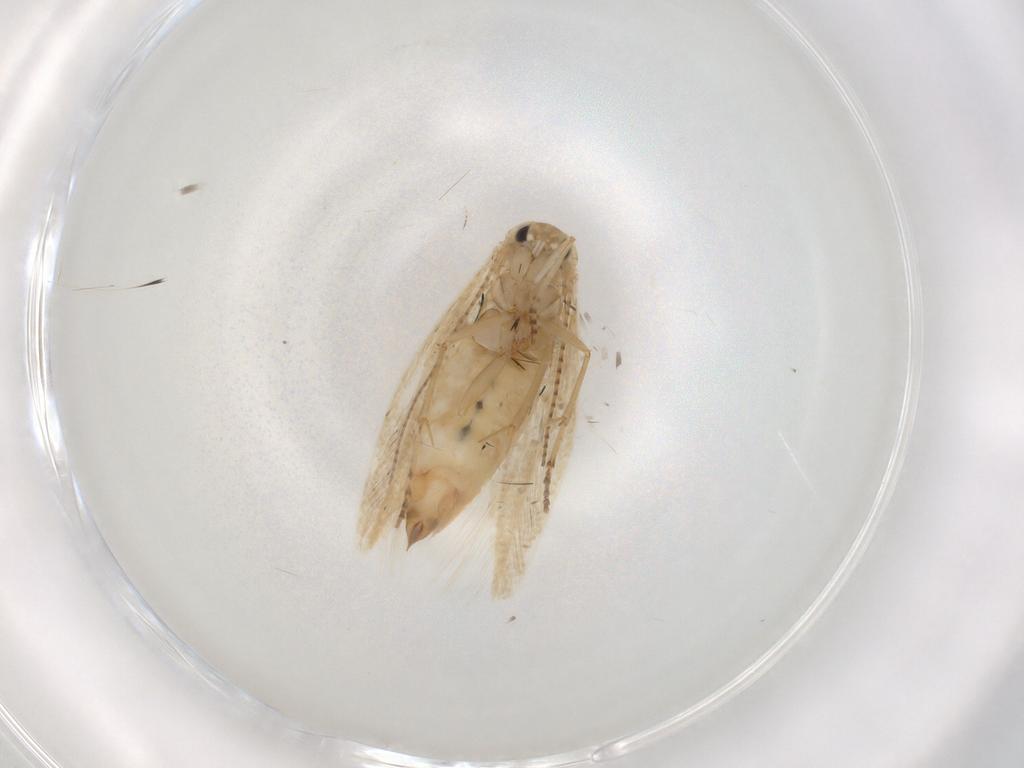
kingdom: Animalia
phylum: Arthropoda
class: Insecta
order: Lepidoptera
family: Bucculatricidae
